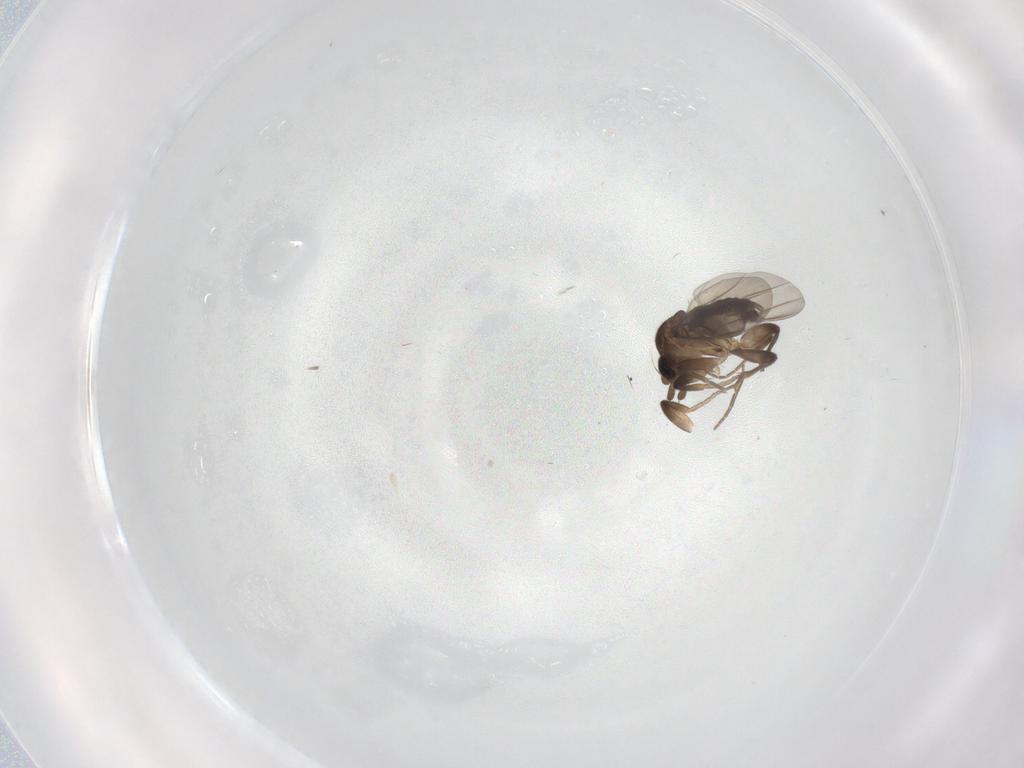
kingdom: Animalia
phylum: Arthropoda
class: Insecta
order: Diptera
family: Phoridae
